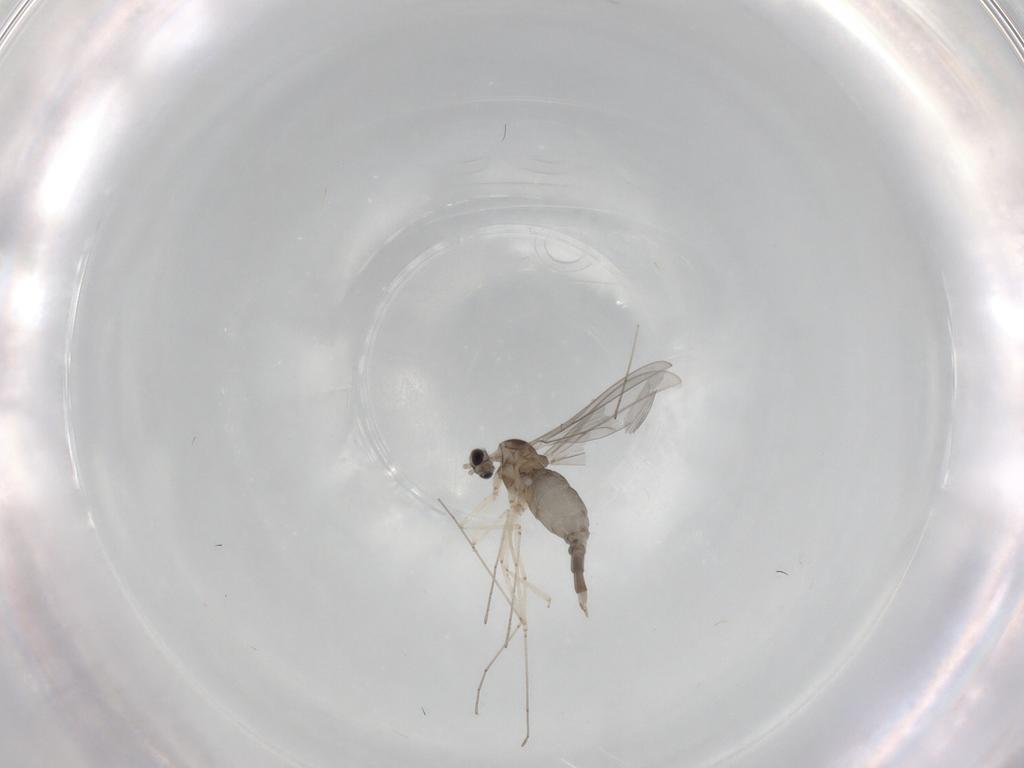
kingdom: Animalia
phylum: Arthropoda
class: Insecta
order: Diptera
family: Cecidomyiidae
